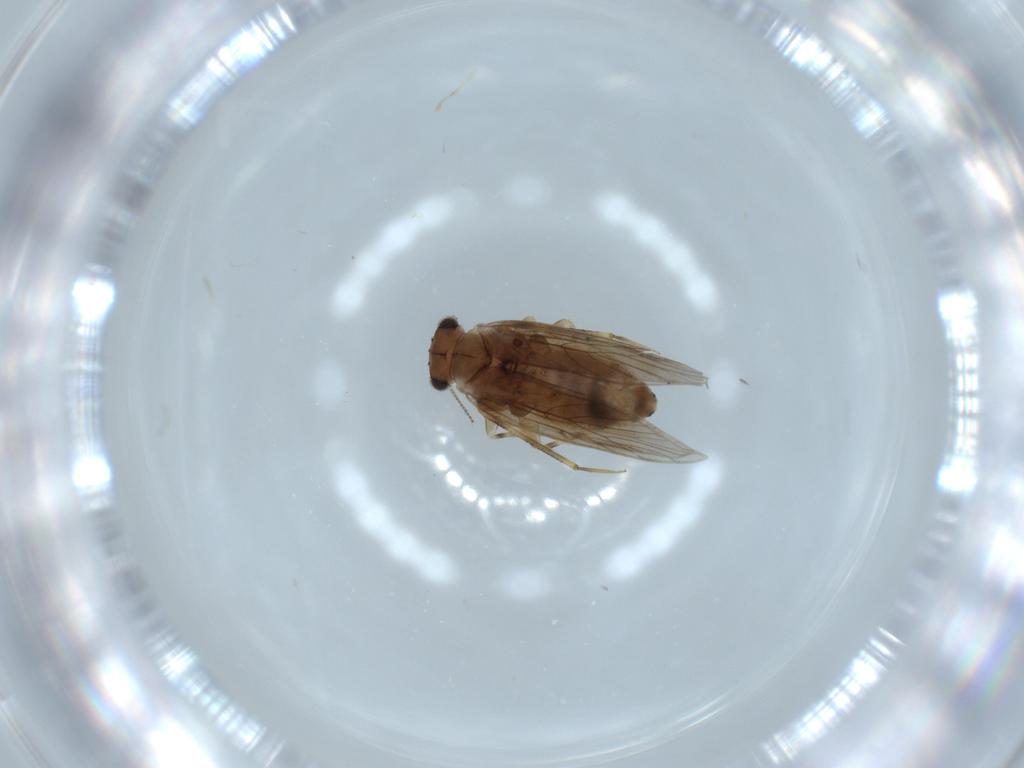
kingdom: Animalia
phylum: Arthropoda
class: Insecta
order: Psocodea
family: Lepidopsocidae
